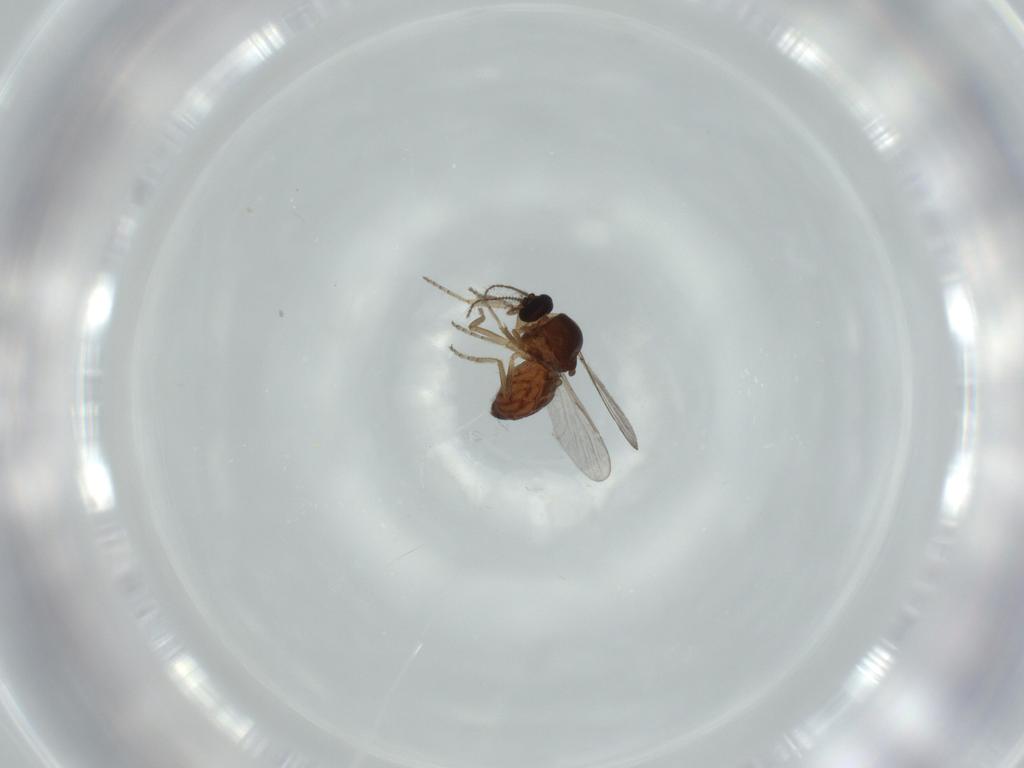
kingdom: Animalia
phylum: Arthropoda
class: Insecta
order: Diptera
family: Ceratopogonidae
